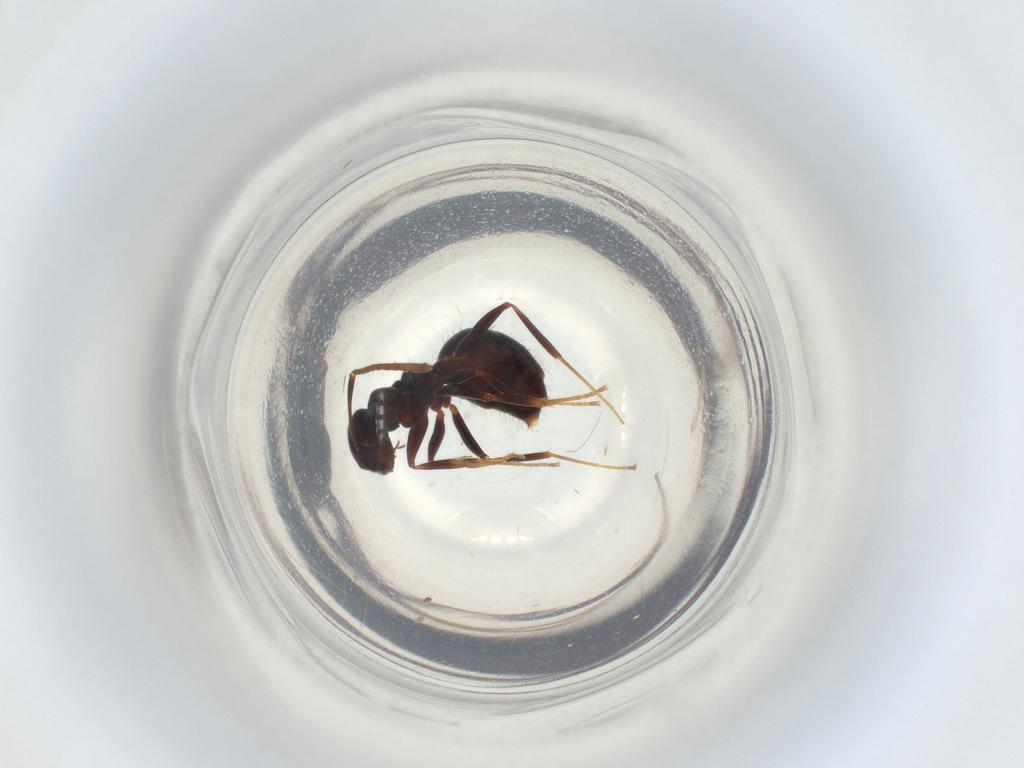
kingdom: Animalia
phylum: Arthropoda
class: Insecta
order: Hymenoptera
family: Formicidae
